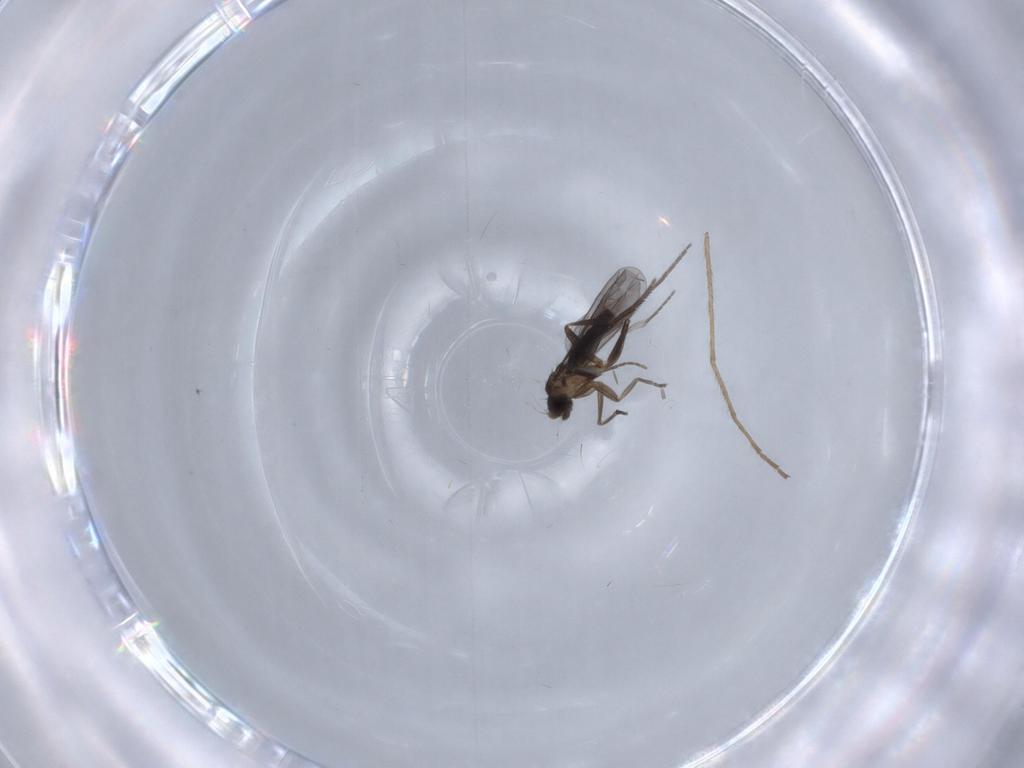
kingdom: Animalia
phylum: Arthropoda
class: Insecta
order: Diptera
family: Chironomidae
